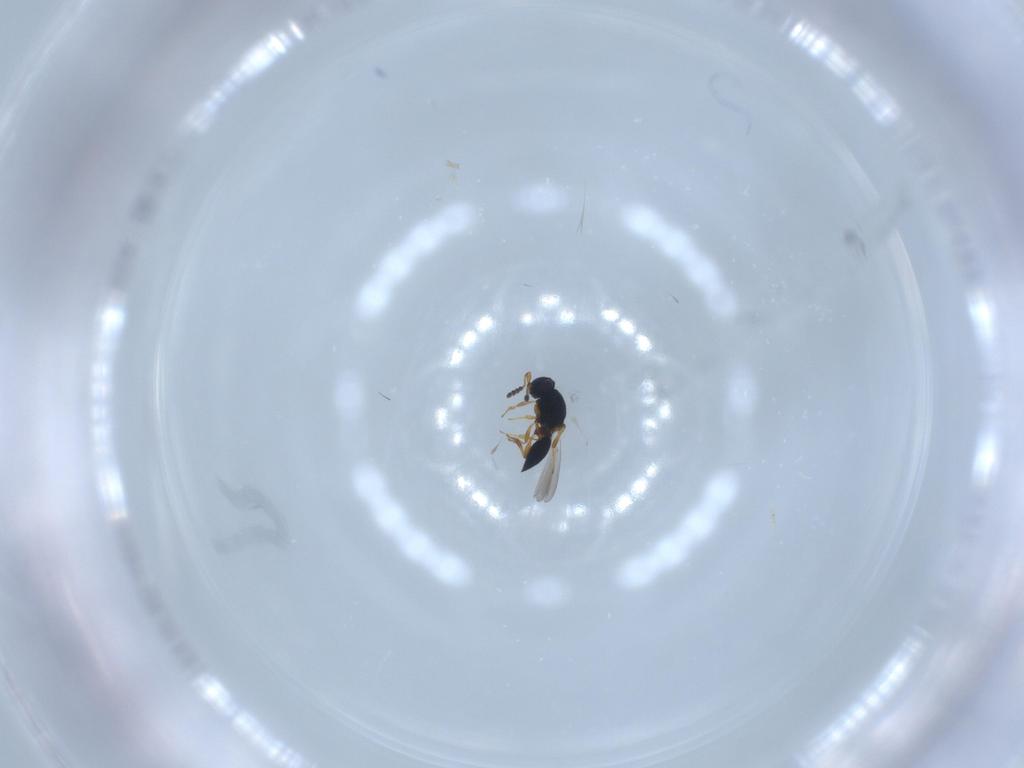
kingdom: Animalia
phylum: Arthropoda
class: Insecta
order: Hymenoptera
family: Platygastridae
